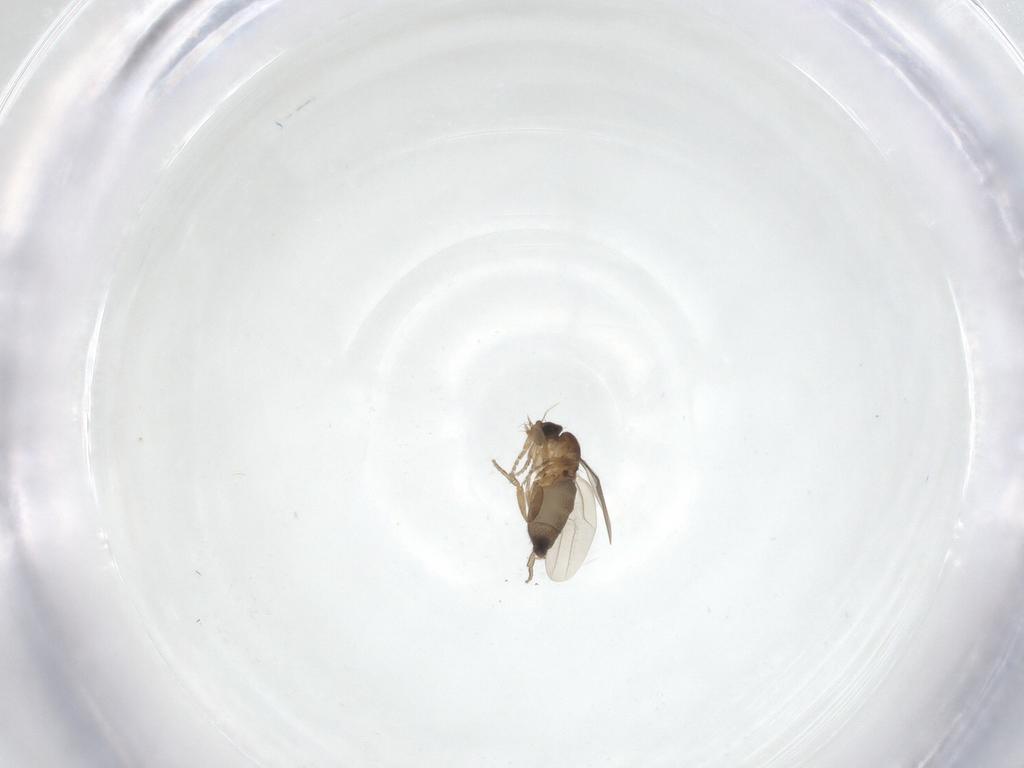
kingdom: Animalia
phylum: Arthropoda
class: Insecta
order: Diptera
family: Phoridae
